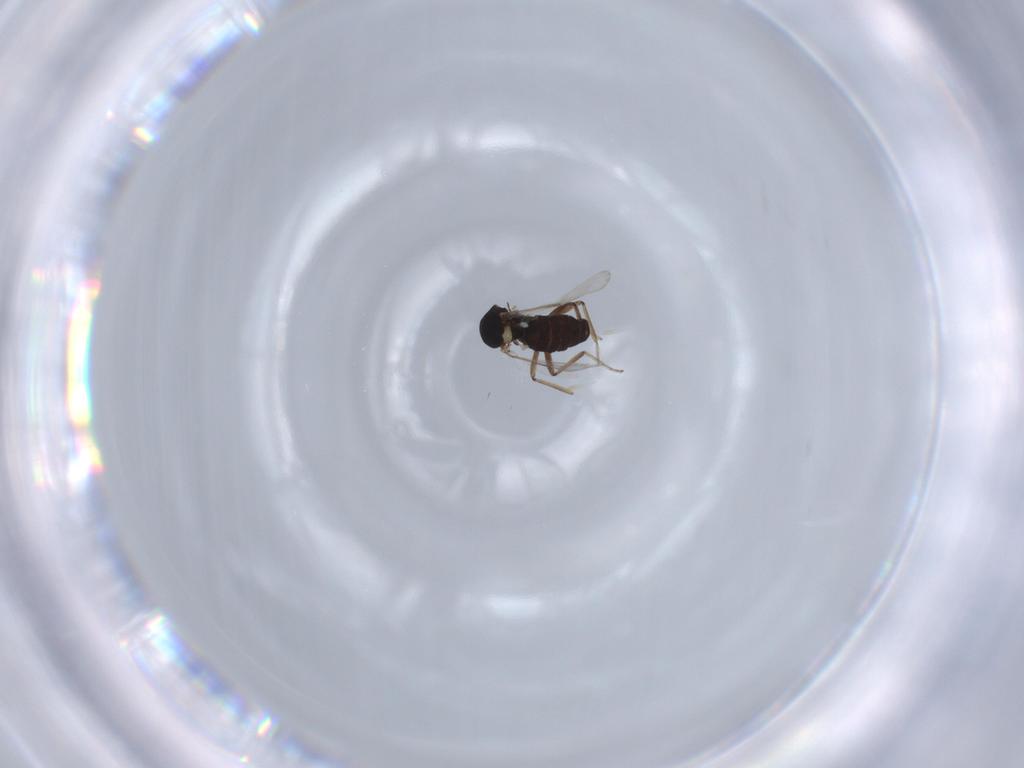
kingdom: Animalia
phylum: Arthropoda
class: Insecta
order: Diptera
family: Ceratopogonidae
